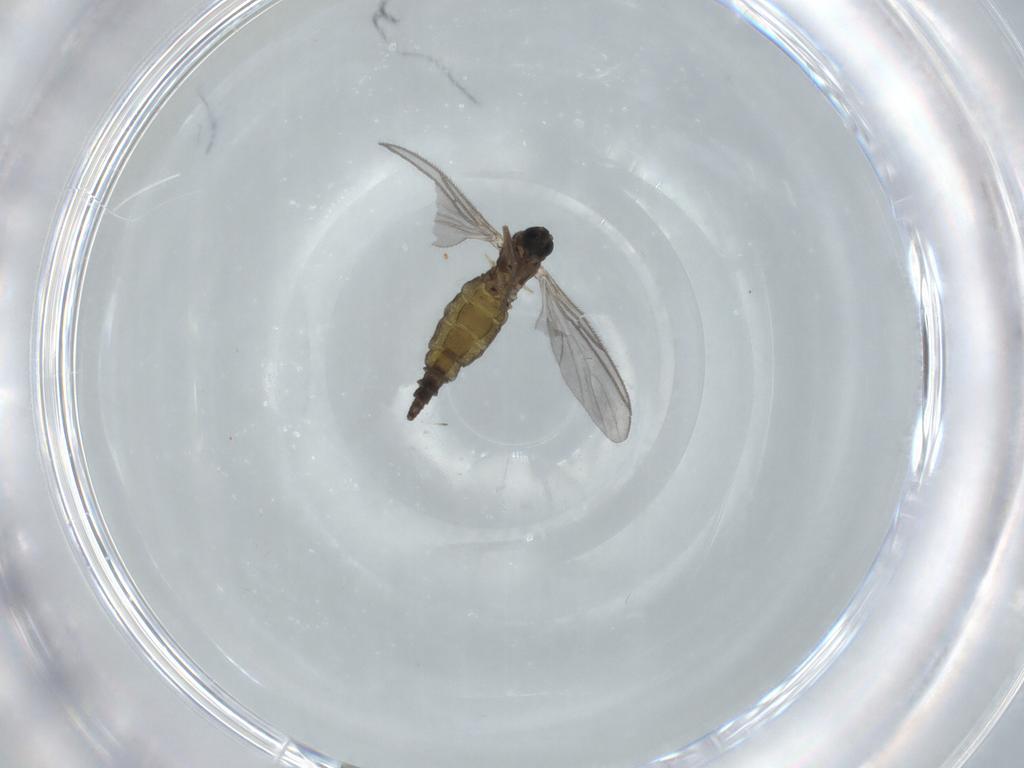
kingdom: Animalia
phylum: Arthropoda
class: Insecta
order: Diptera
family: Sciaridae
